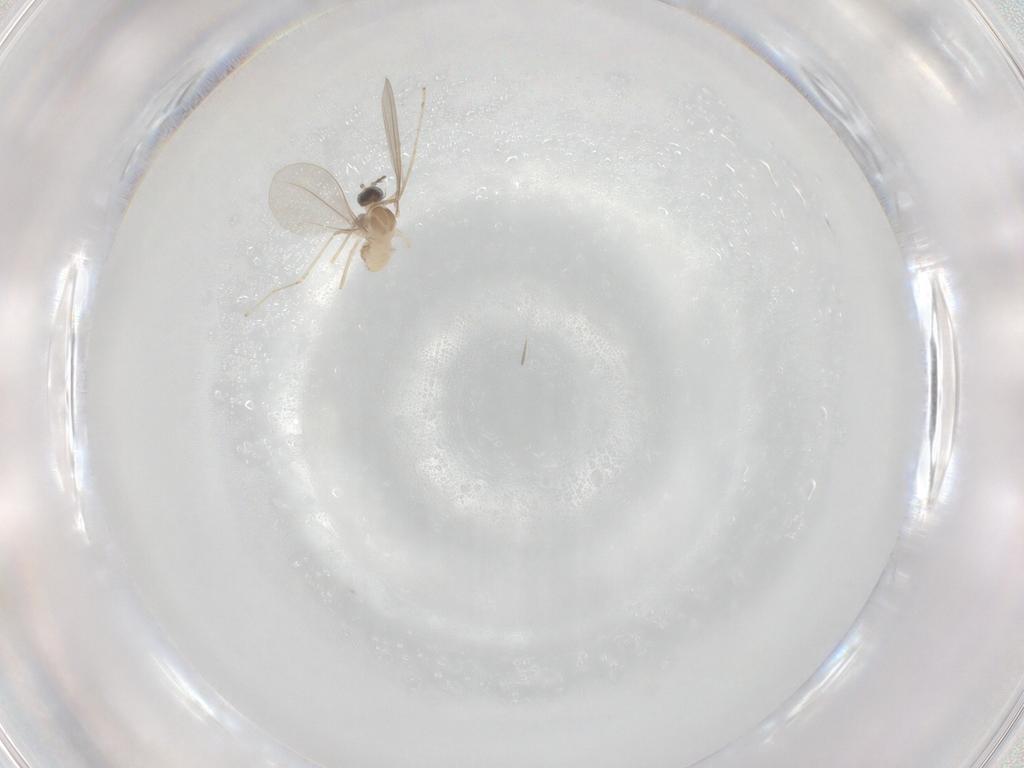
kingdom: Animalia
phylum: Arthropoda
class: Insecta
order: Diptera
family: Cecidomyiidae
